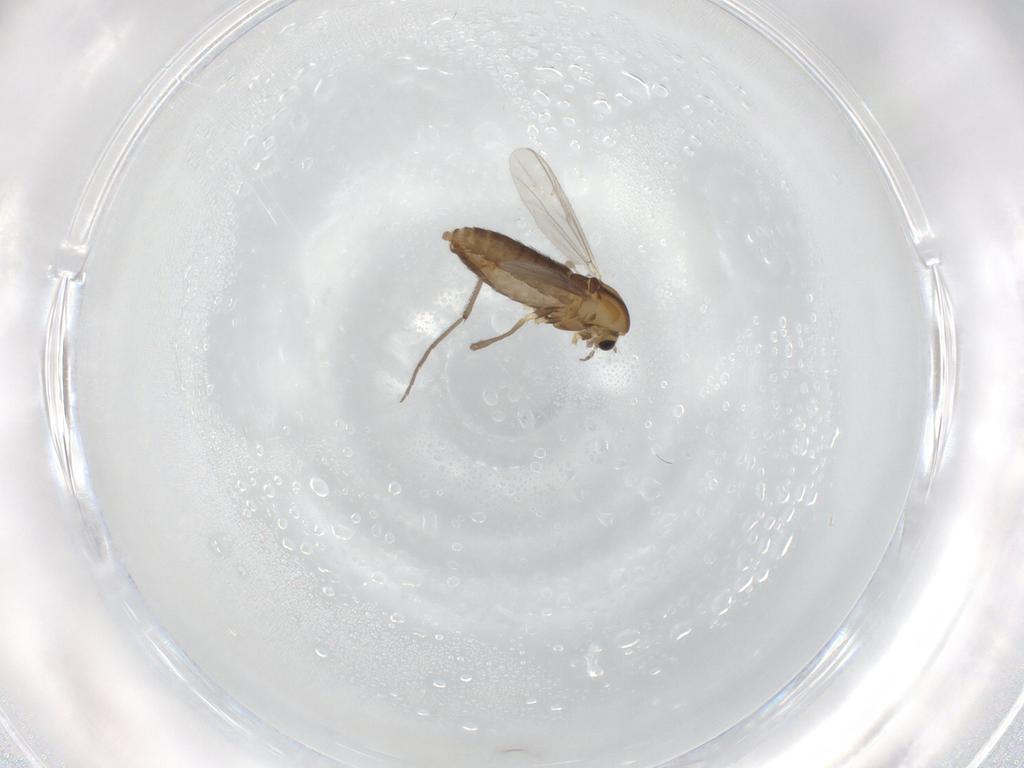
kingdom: Animalia
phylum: Arthropoda
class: Insecta
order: Diptera
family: Chironomidae
